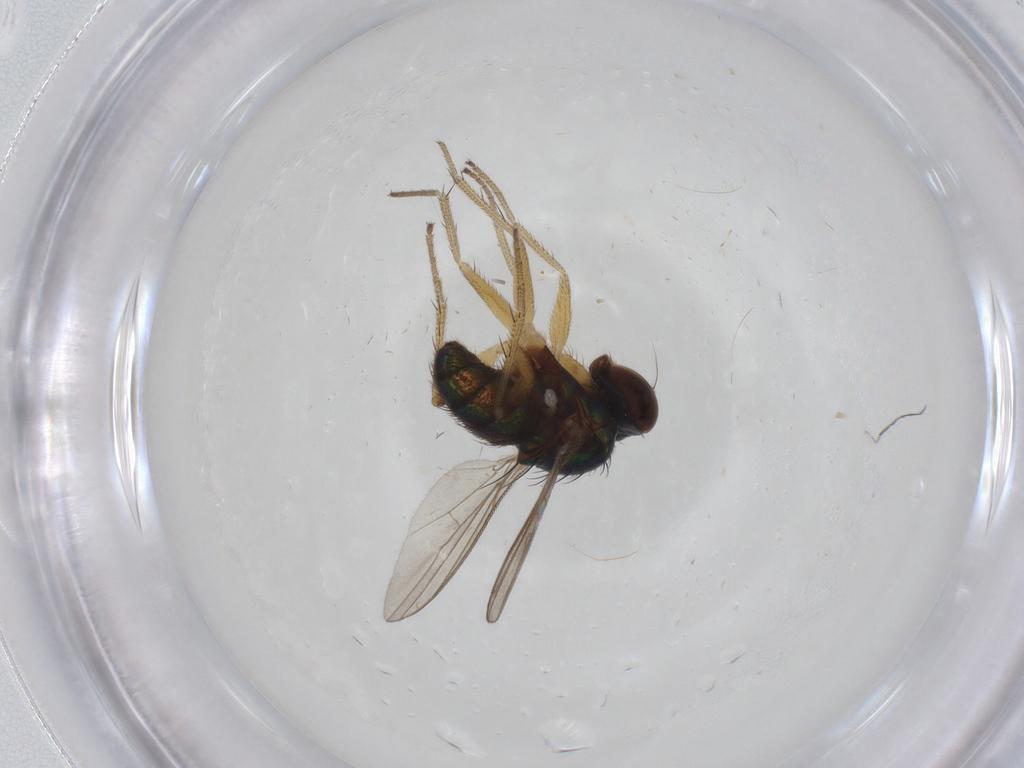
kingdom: Animalia
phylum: Arthropoda
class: Insecta
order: Diptera
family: Dolichopodidae
